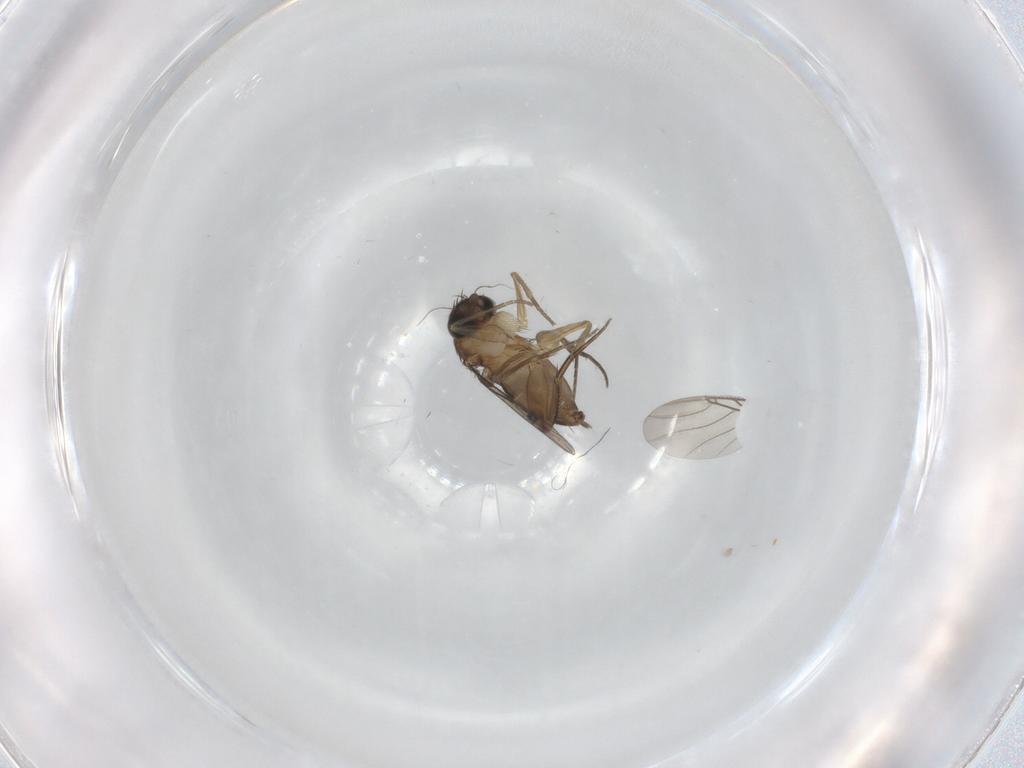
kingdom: Animalia
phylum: Arthropoda
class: Insecta
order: Diptera
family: Phoridae
